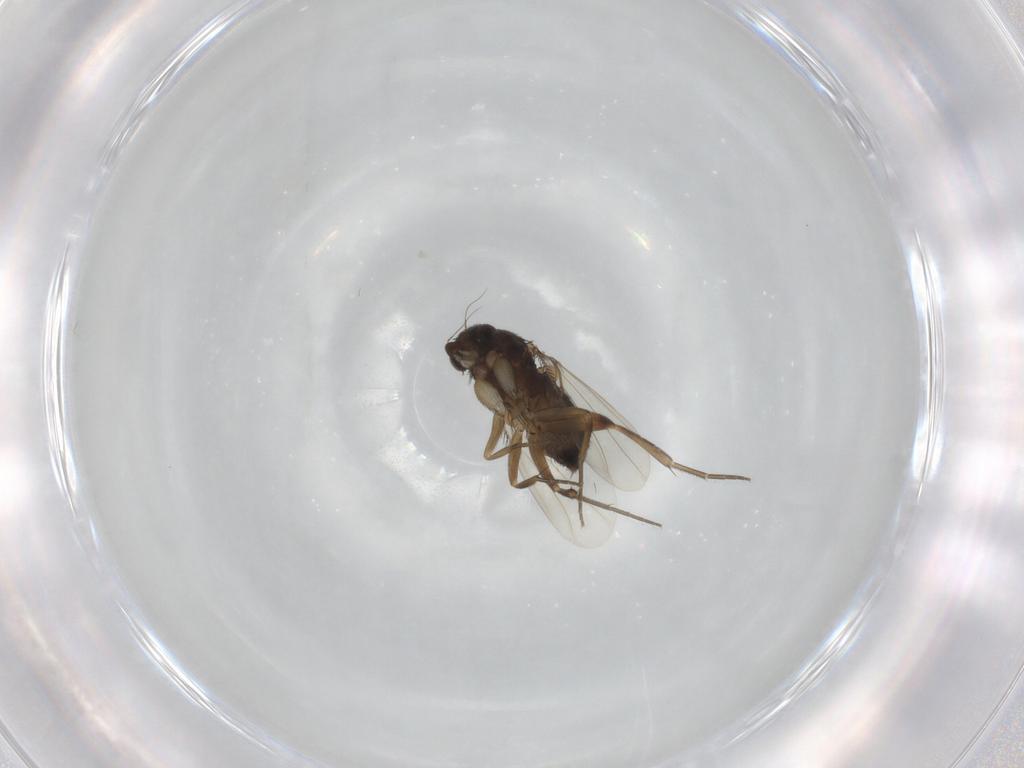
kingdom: Animalia
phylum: Arthropoda
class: Insecta
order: Diptera
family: Phoridae
